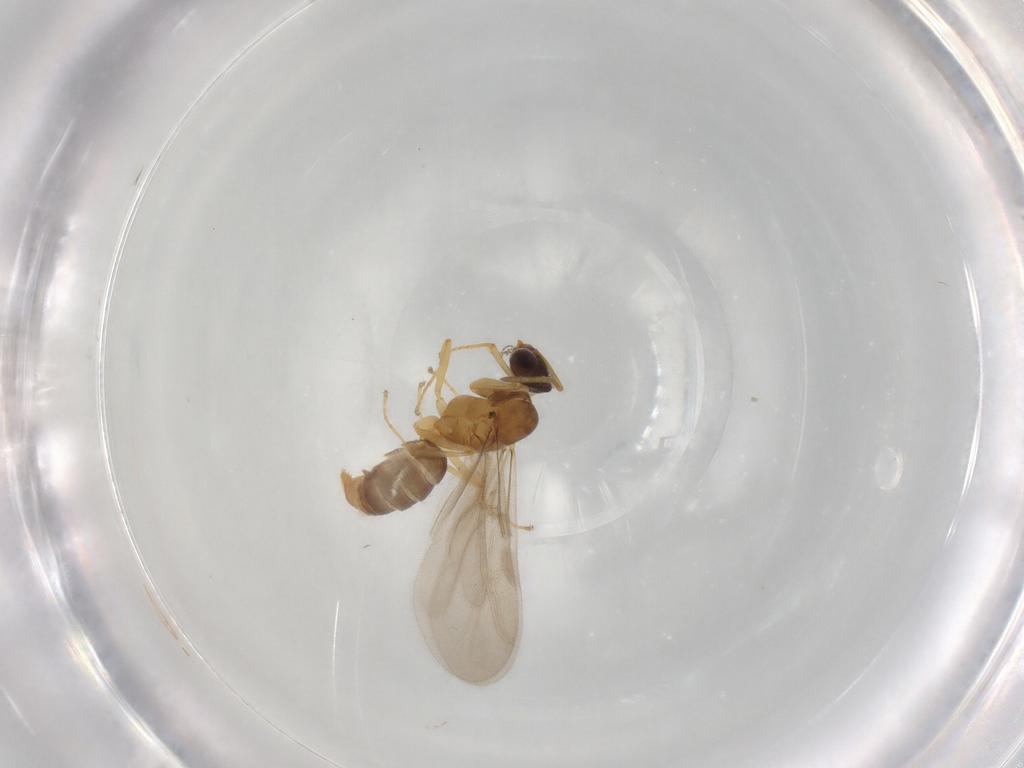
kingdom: Animalia
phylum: Arthropoda
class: Insecta
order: Hymenoptera
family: Formicidae
